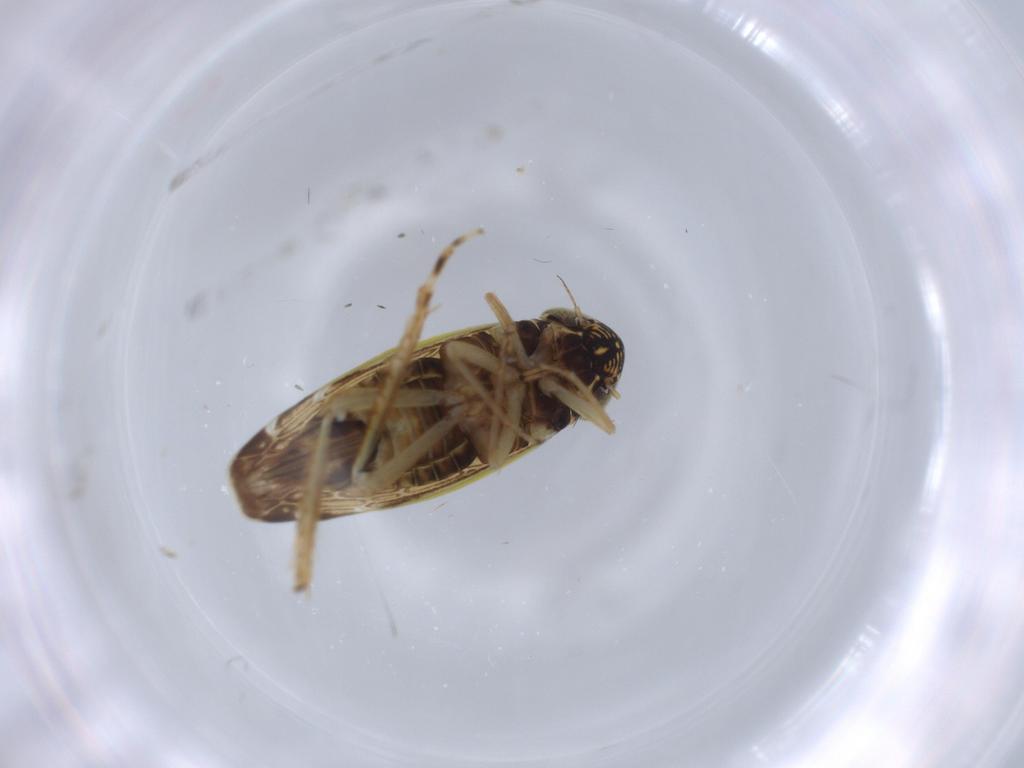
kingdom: Animalia
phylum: Arthropoda
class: Insecta
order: Hemiptera
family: Cicadellidae
